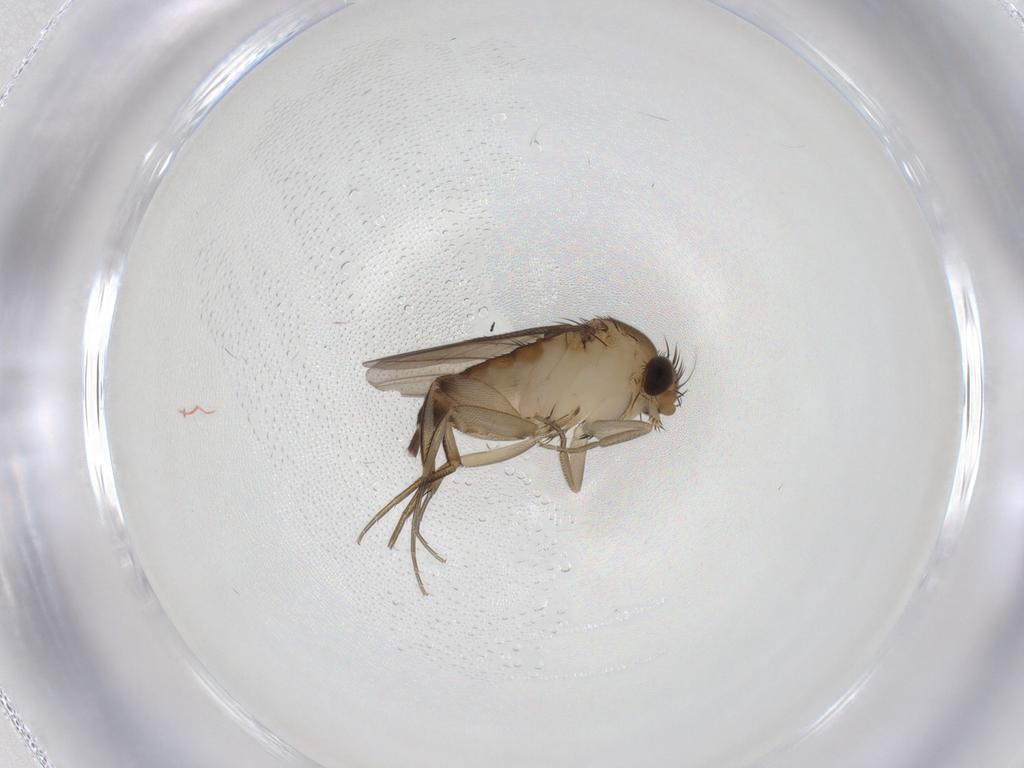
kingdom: Animalia
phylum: Arthropoda
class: Insecta
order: Diptera
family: Phoridae
